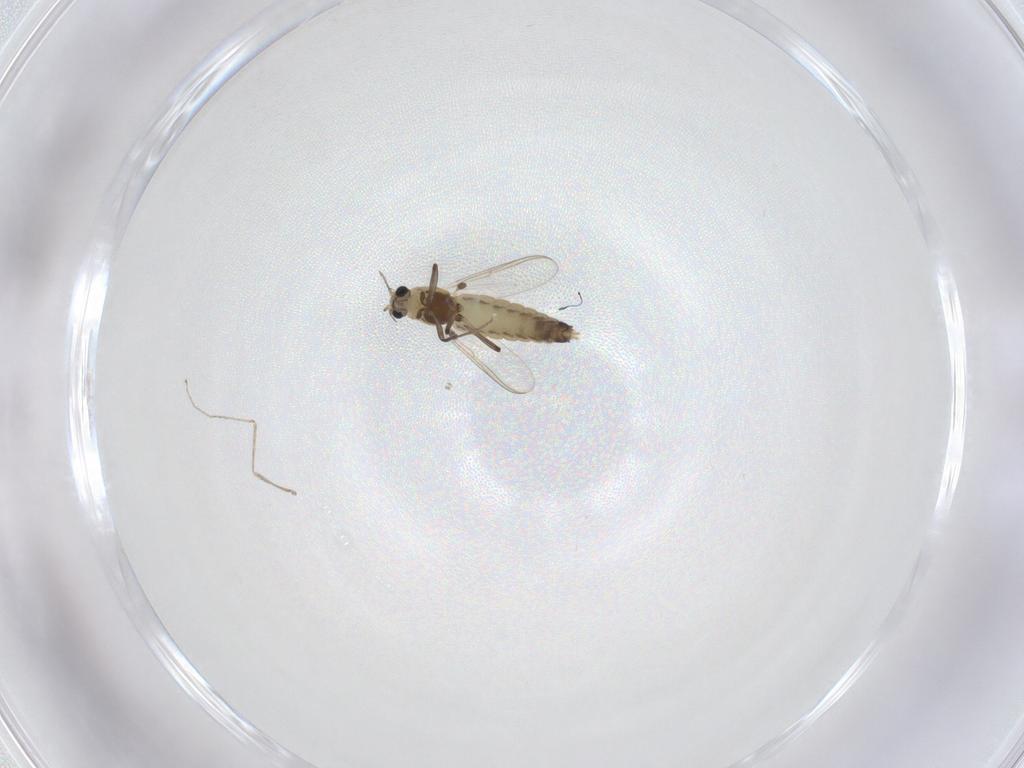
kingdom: Animalia
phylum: Arthropoda
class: Insecta
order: Diptera
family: Chironomidae
